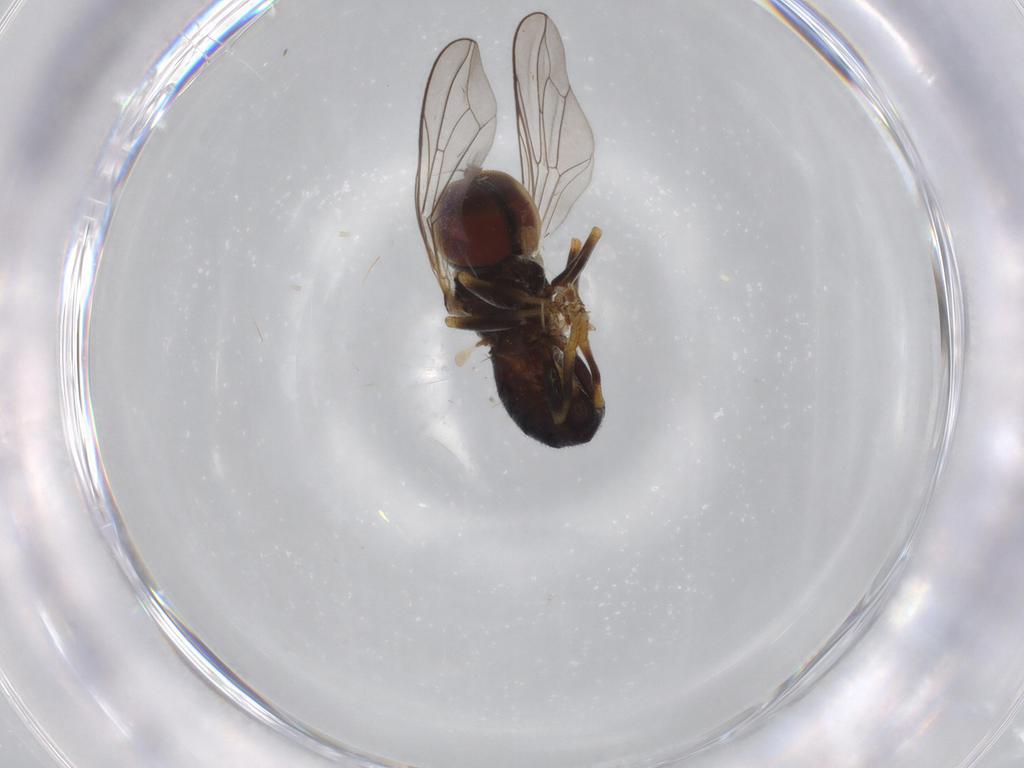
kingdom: Animalia
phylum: Arthropoda
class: Insecta
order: Diptera
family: Pipunculidae
